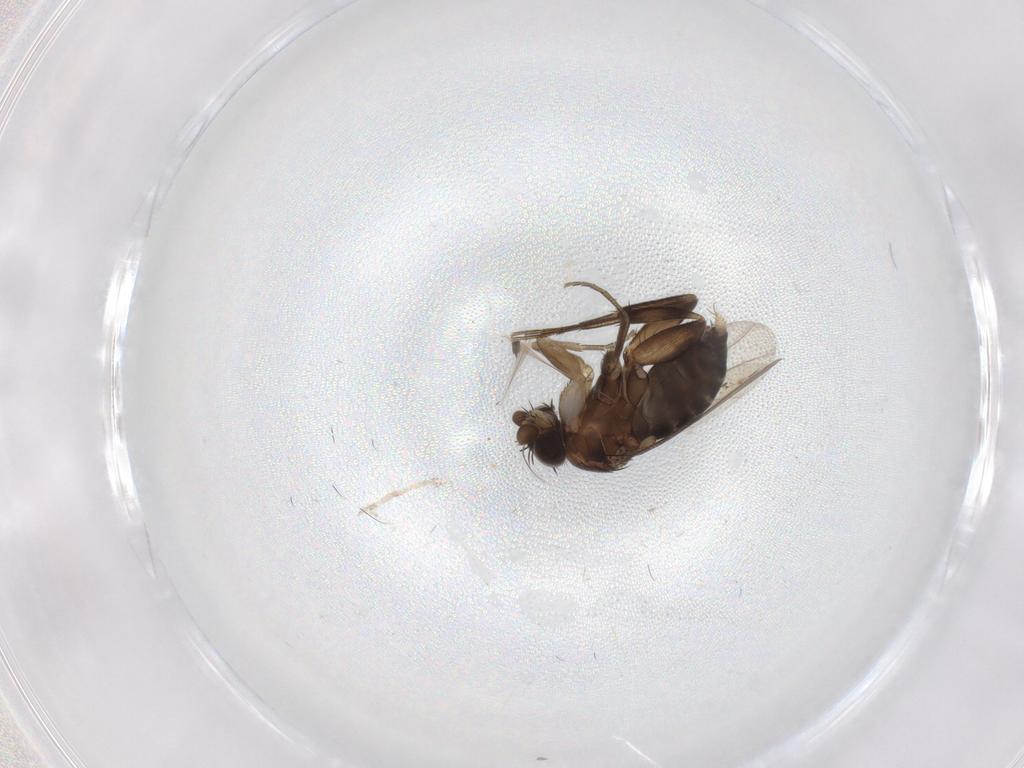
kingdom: Animalia
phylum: Arthropoda
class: Insecta
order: Diptera
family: Phoridae
